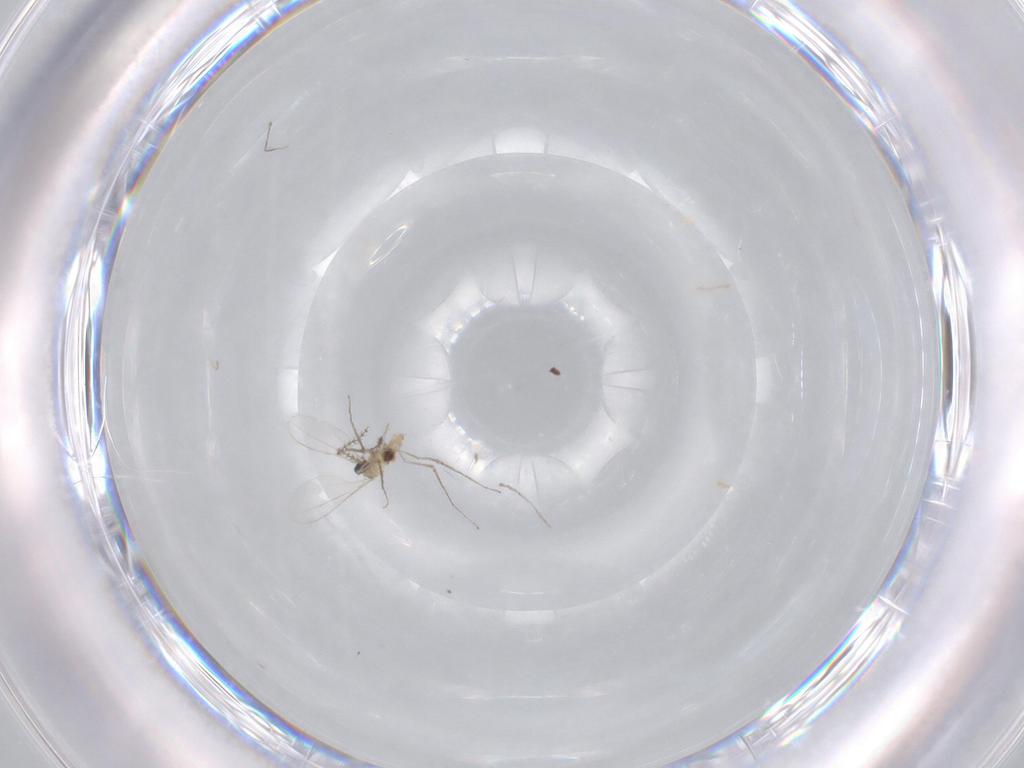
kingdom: Animalia
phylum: Arthropoda
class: Insecta
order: Diptera
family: Cecidomyiidae
